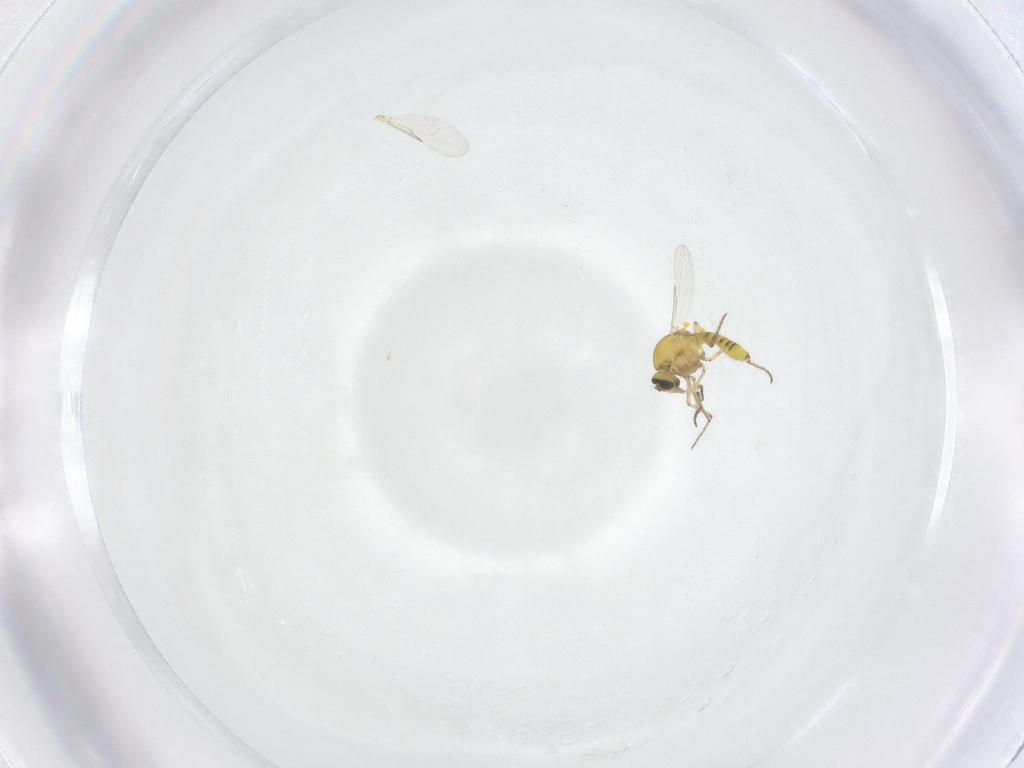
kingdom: Animalia
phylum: Arthropoda
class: Insecta
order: Diptera
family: Ceratopogonidae
